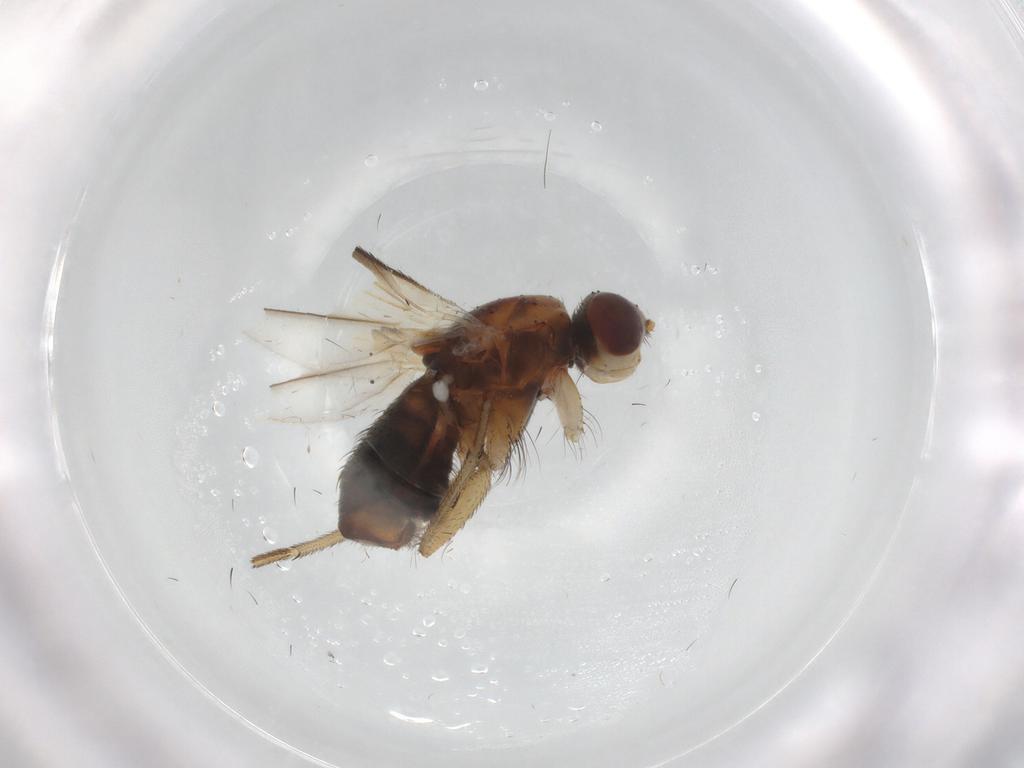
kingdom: Animalia
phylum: Arthropoda
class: Insecta
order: Diptera
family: Heleomyzidae
